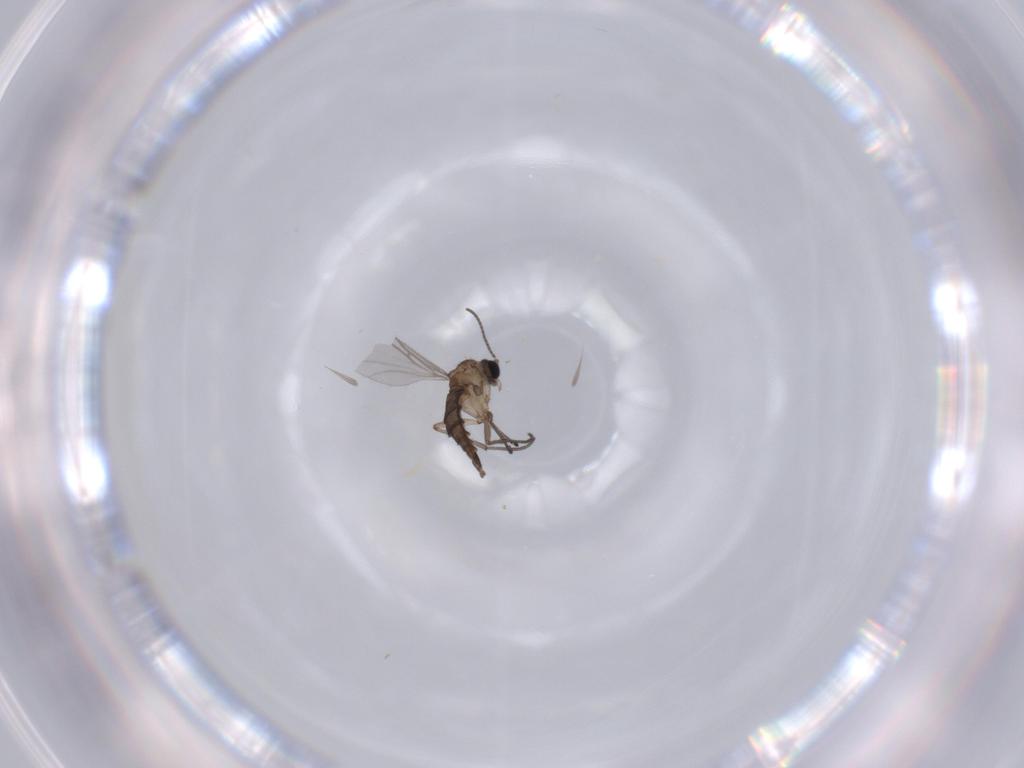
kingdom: Animalia
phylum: Arthropoda
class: Insecta
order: Diptera
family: Sciaridae
